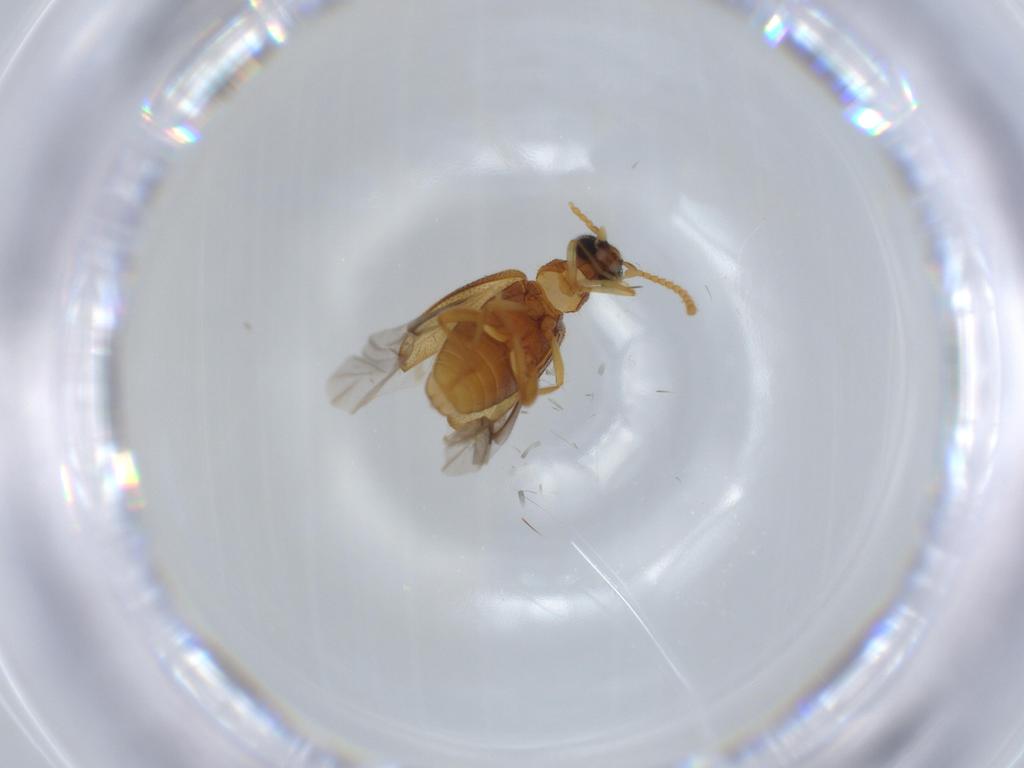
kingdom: Animalia
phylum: Arthropoda
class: Insecta
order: Coleoptera
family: Aderidae
